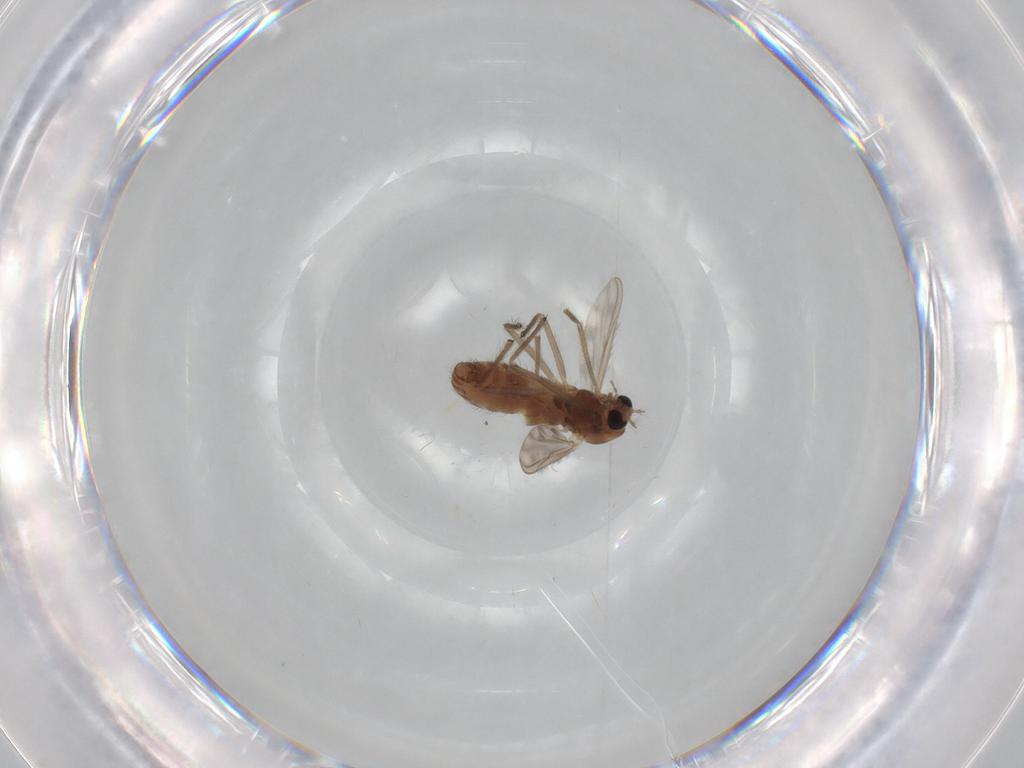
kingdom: Animalia
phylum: Arthropoda
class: Insecta
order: Diptera
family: Chironomidae
